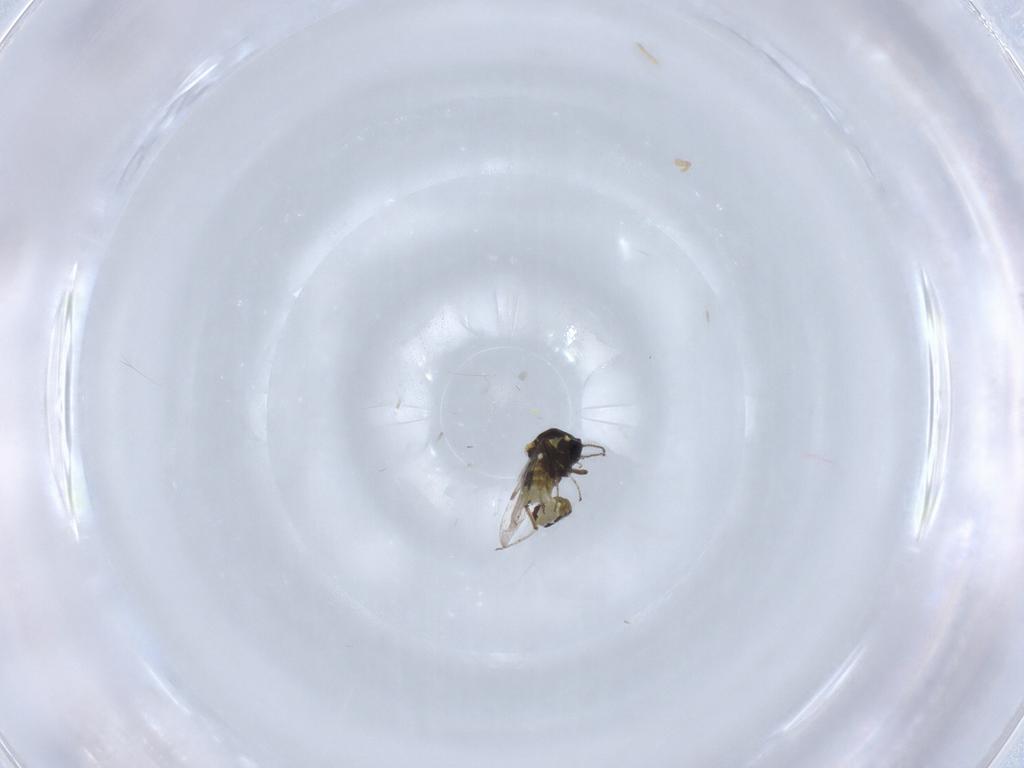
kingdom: Animalia
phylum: Arthropoda
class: Insecta
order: Diptera
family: Ceratopogonidae
